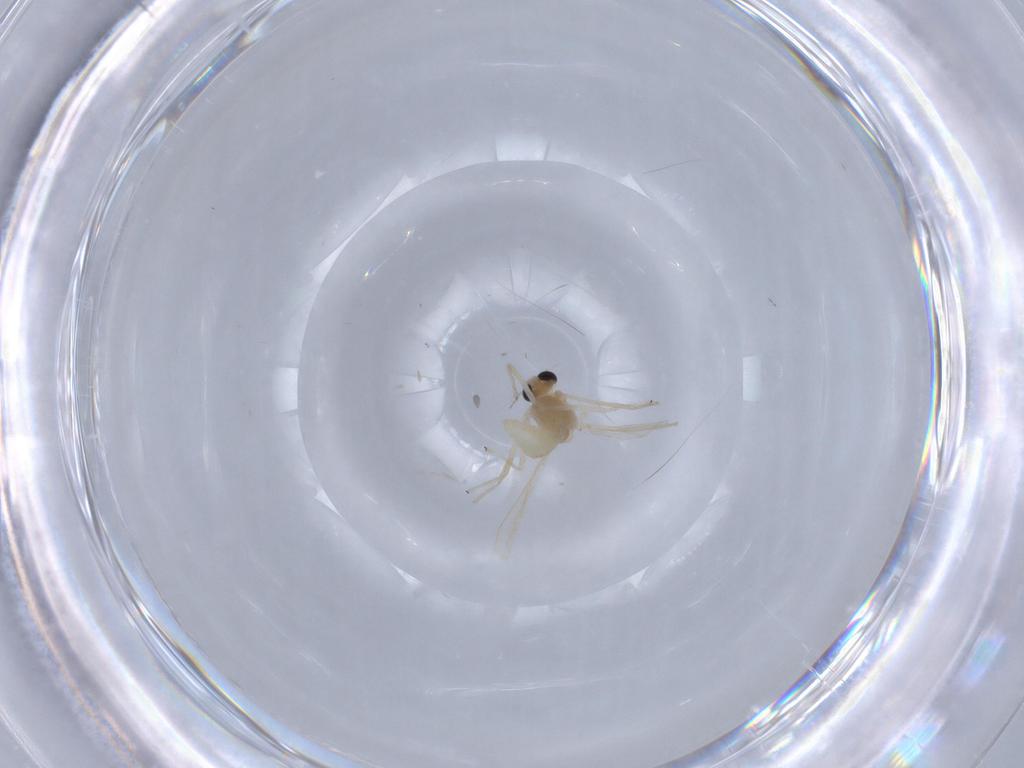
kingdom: Animalia
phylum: Arthropoda
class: Insecta
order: Diptera
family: Chironomidae
